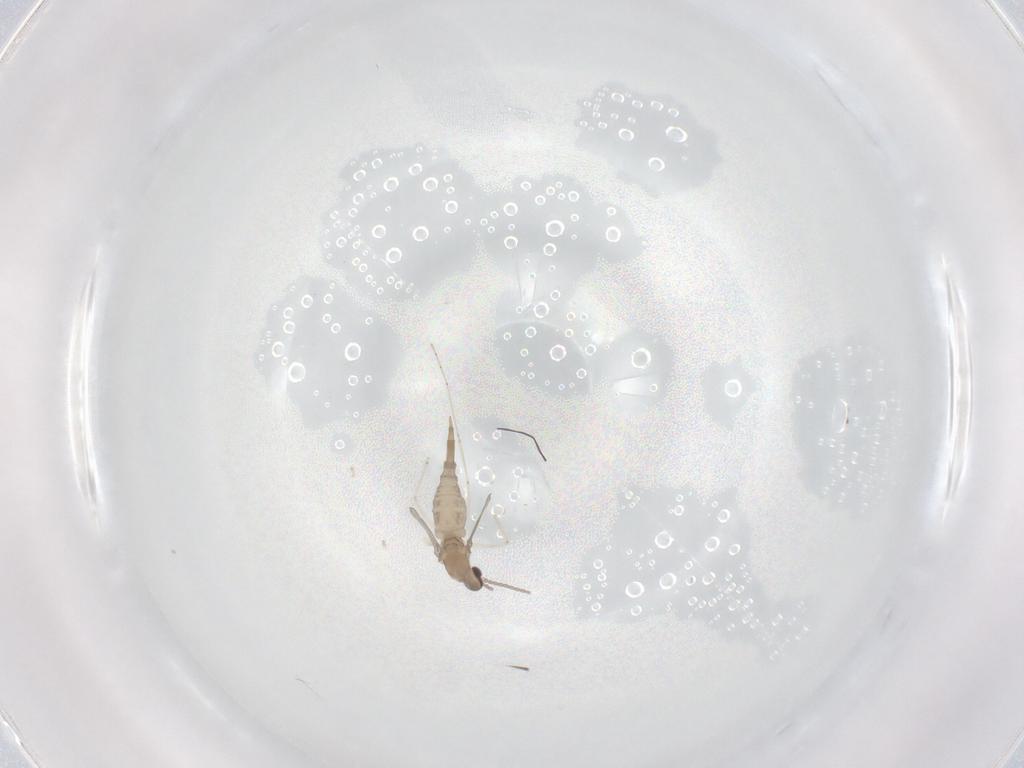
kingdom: Animalia
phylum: Arthropoda
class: Insecta
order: Diptera
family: Cecidomyiidae
